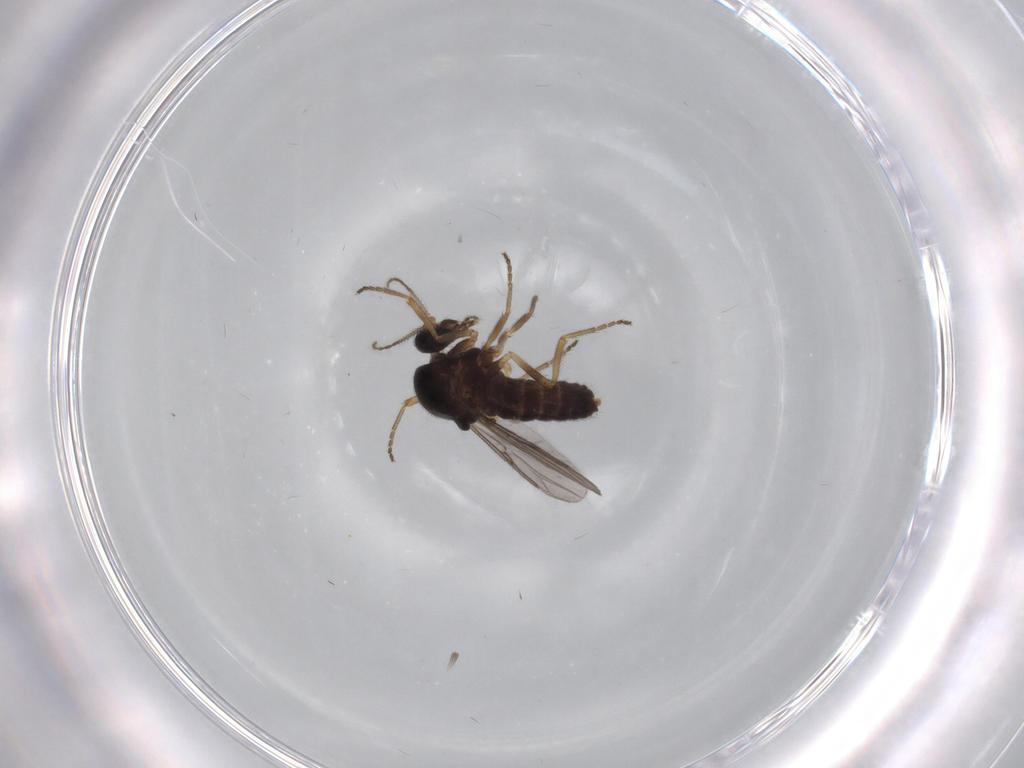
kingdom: Animalia
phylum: Arthropoda
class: Insecta
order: Diptera
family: Ceratopogonidae
